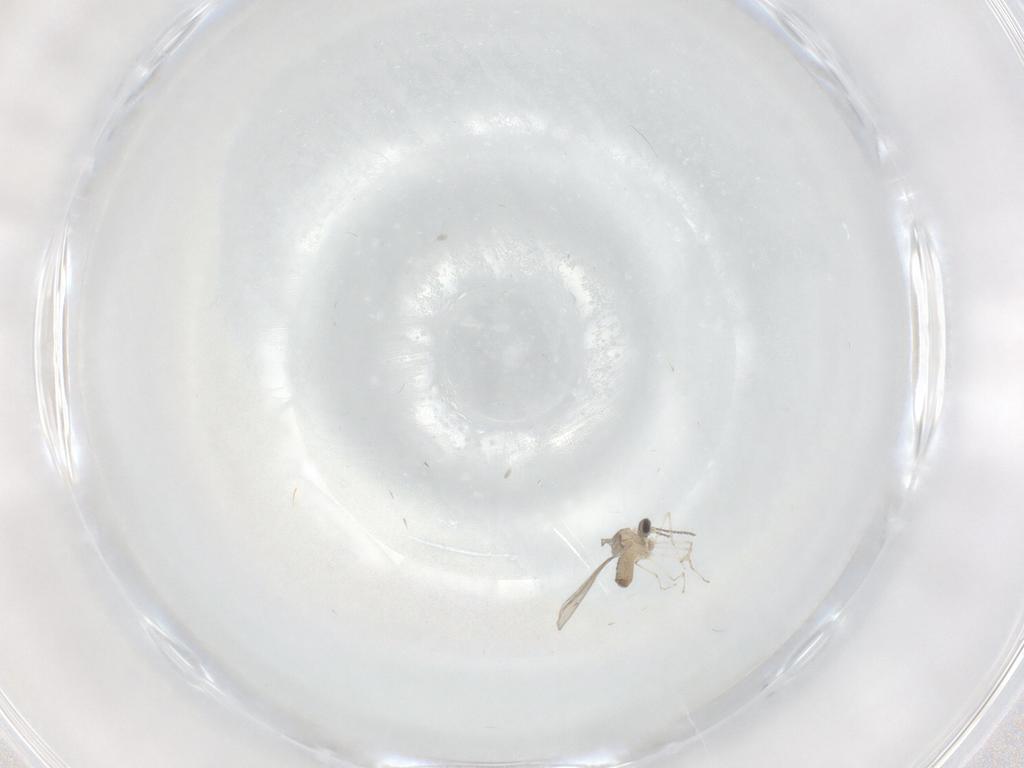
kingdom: Animalia
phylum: Arthropoda
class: Insecta
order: Diptera
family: Cecidomyiidae
